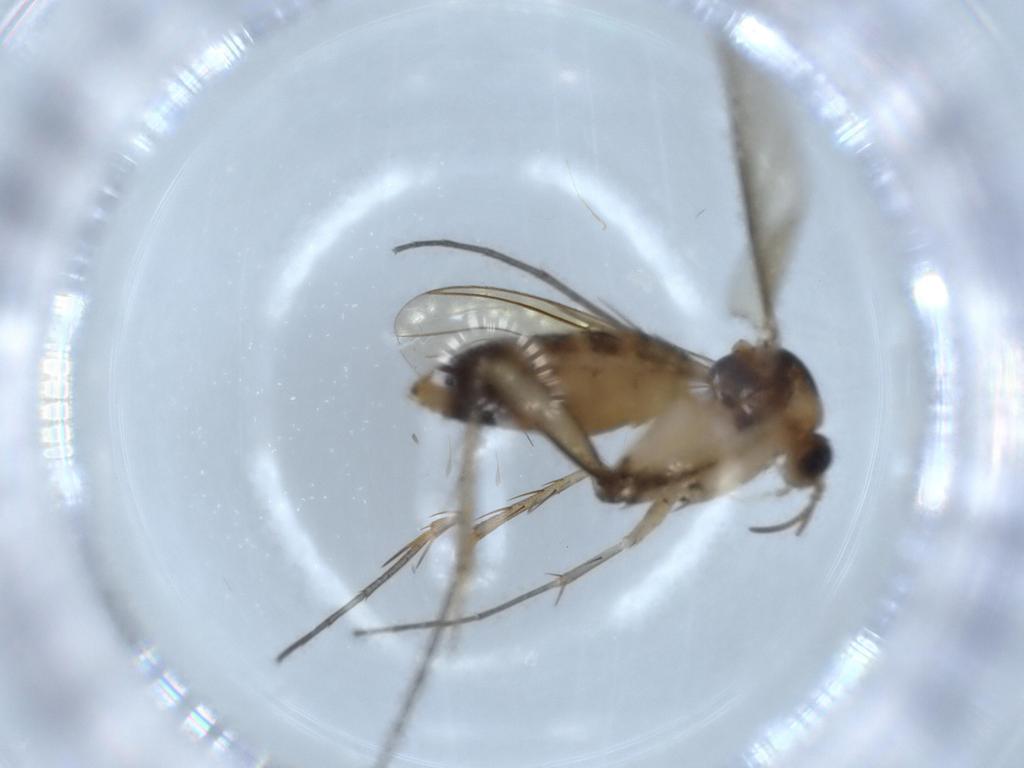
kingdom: Animalia
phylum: Arthropoda
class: Insecta
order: Diptera
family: Mycetophilidae
